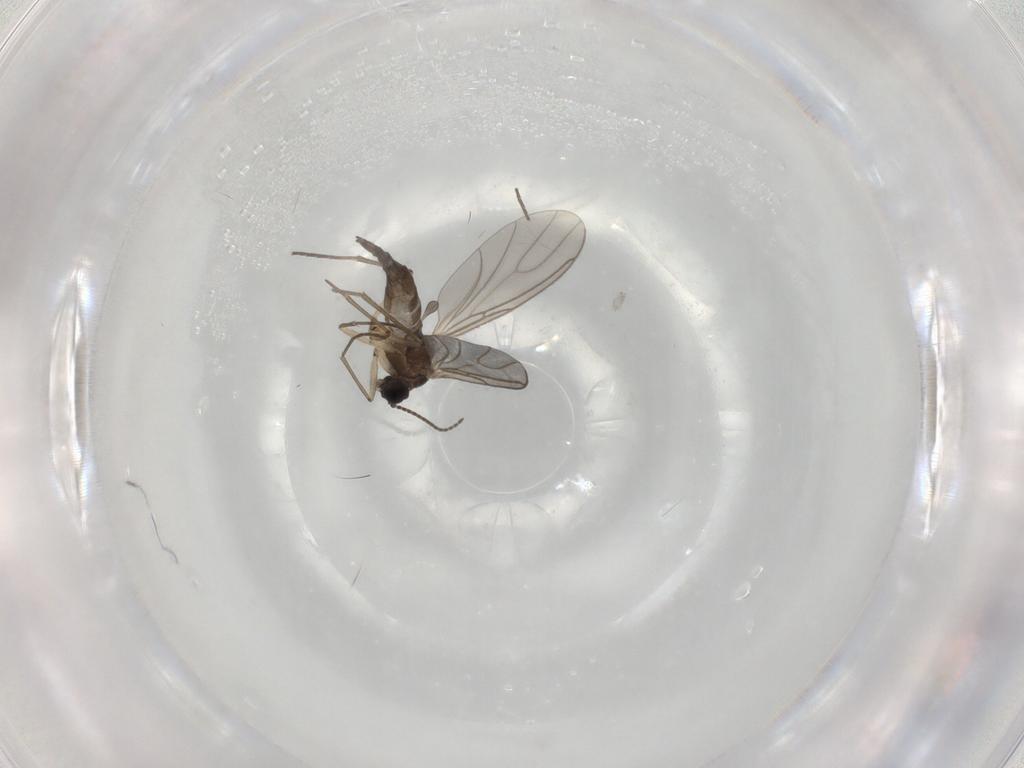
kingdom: Animalia
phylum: Arthropoda
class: Insecta
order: Diptera
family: Sciaridae
